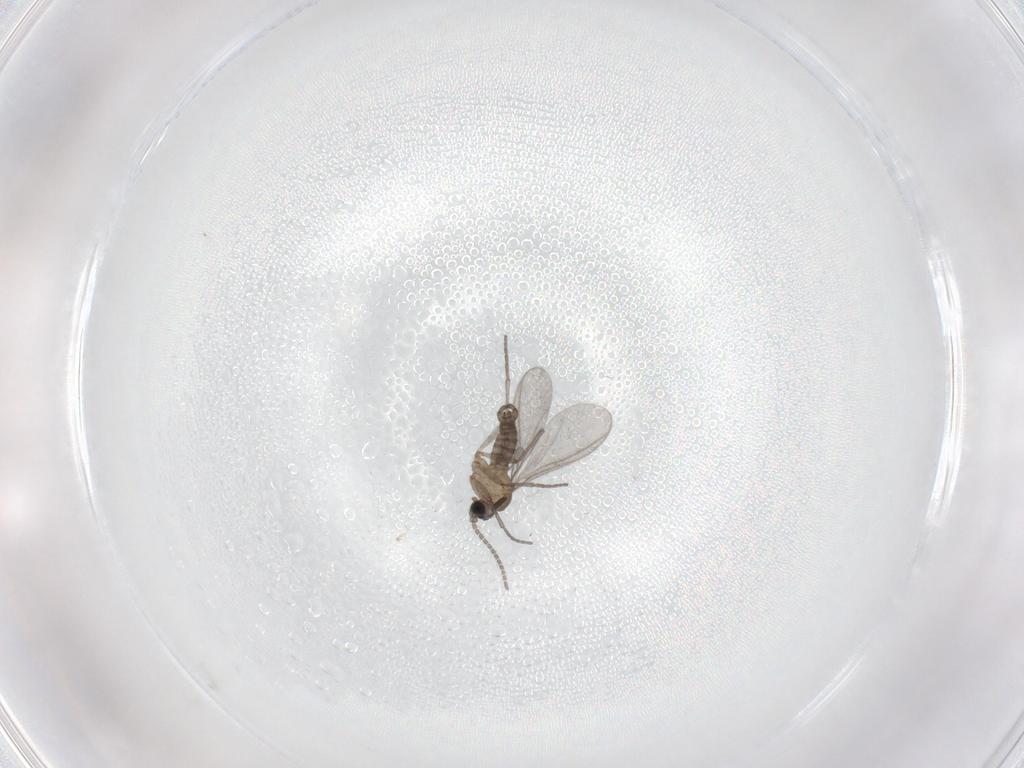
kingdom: Animalia
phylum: Arthropoda
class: Insecta
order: Diptera
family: Sciaridae
